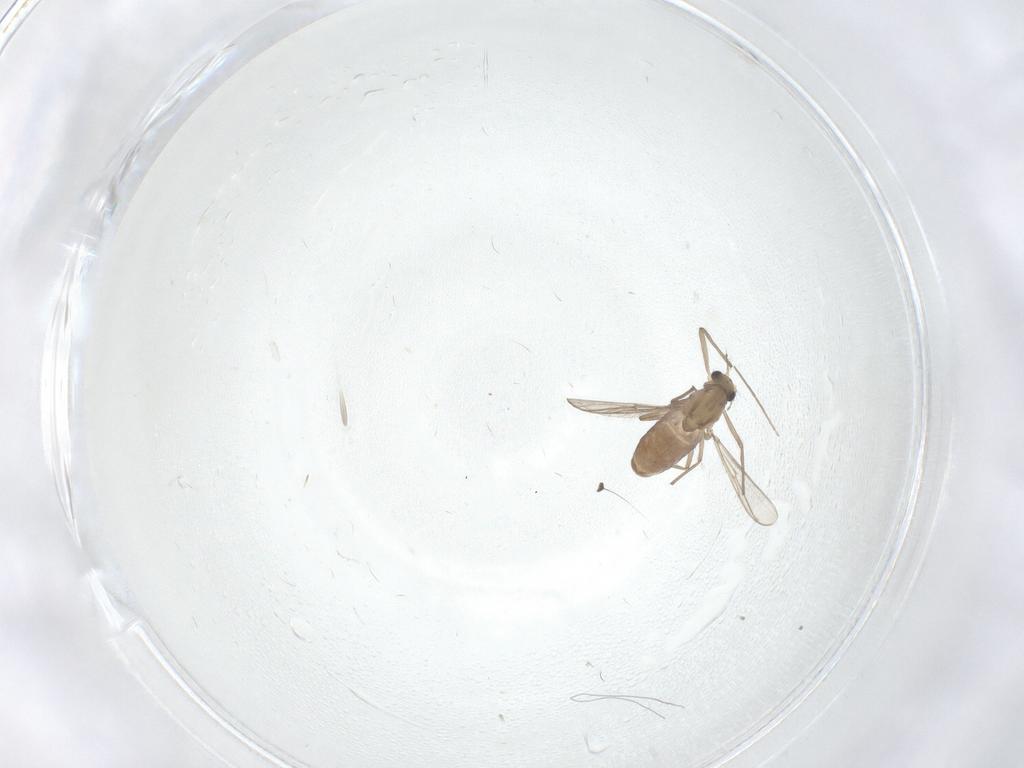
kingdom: Animalia
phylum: Arthropoda
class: Insecta
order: Diptera
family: Chironomidae
